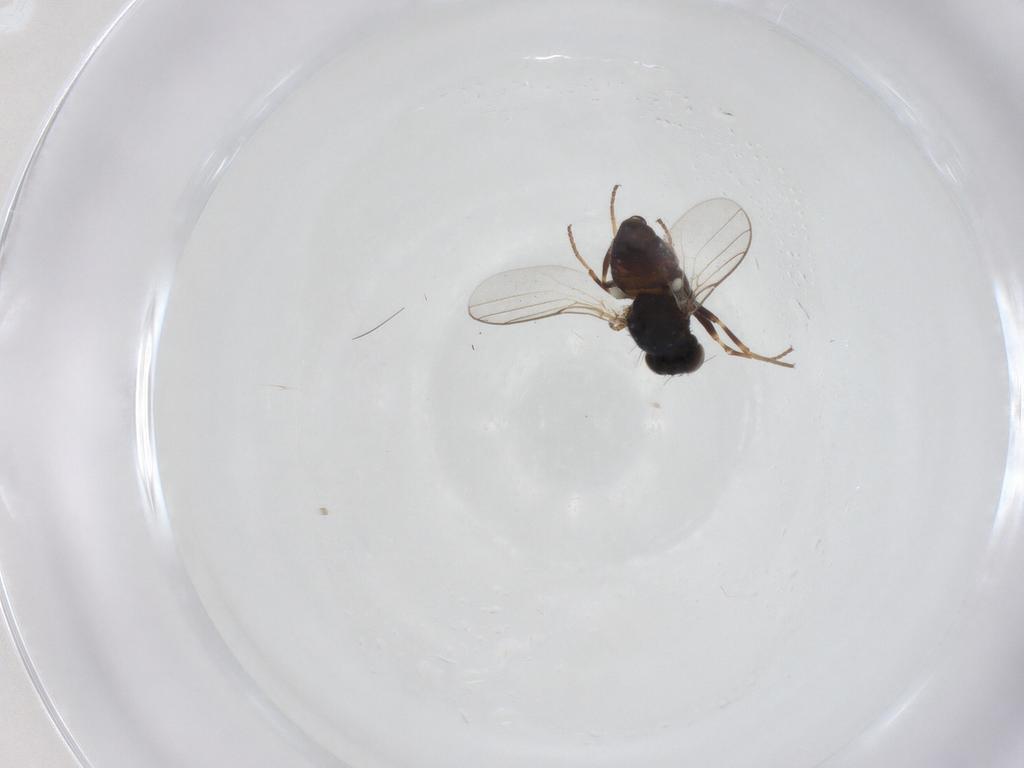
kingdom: Animalia
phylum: Arthropoda
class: Insecta
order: Diptera
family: Chloropidae
